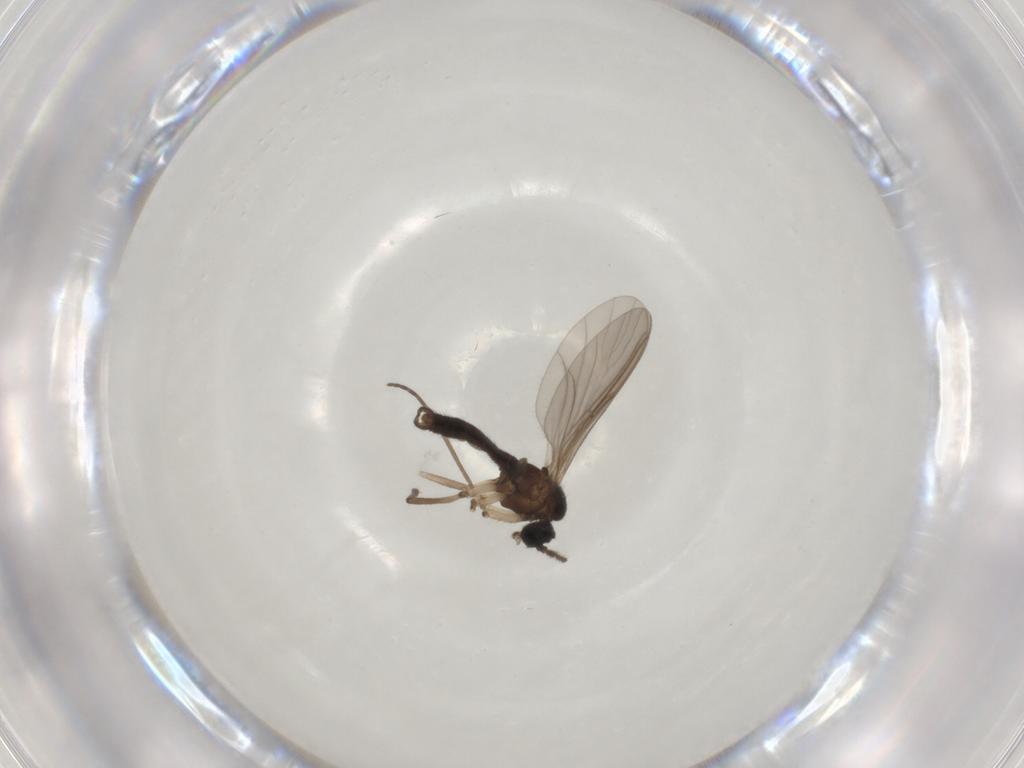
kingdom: Animalia
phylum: Arthropoda
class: Insecta
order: Diptera
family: Sciaridae
